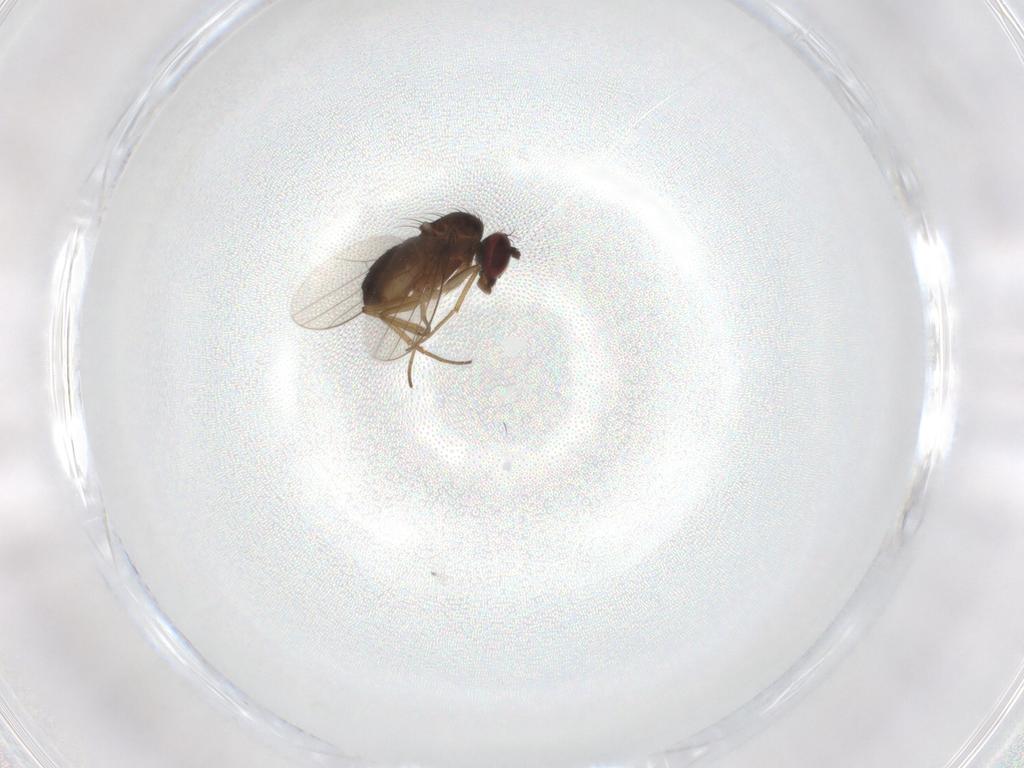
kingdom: Animalia
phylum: Arthropoda
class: Insecta
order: Diptera
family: Dolichopodidae
